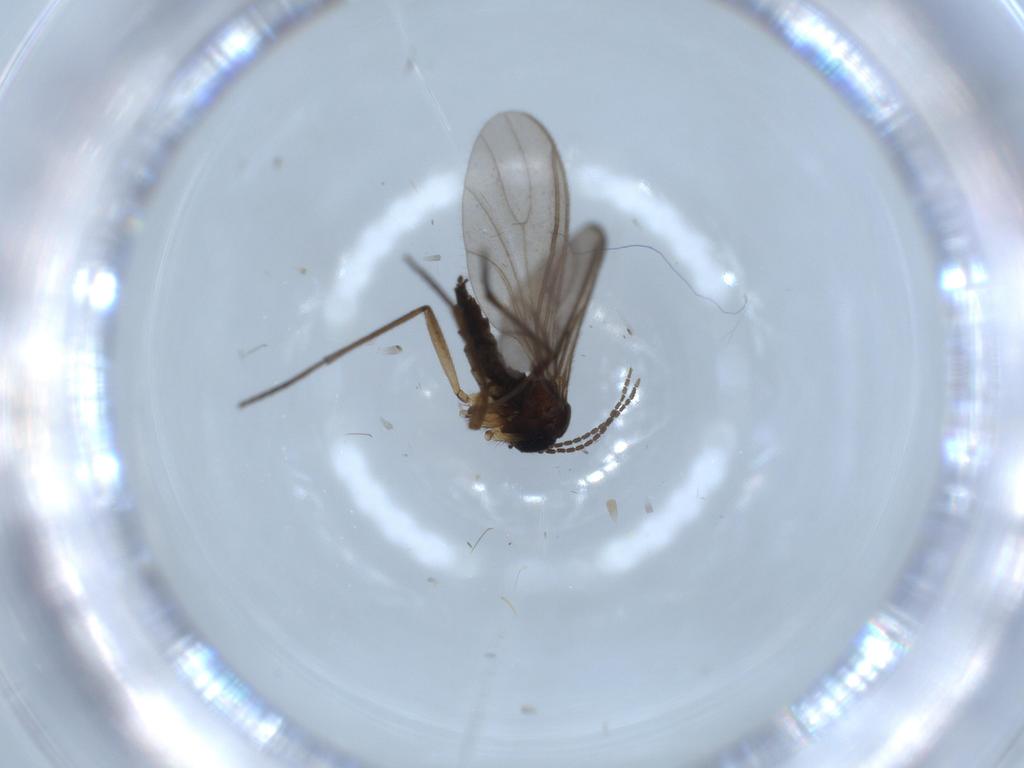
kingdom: Animalia
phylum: Arthropoda
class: Insecta
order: Diptera
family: Sciaridae
